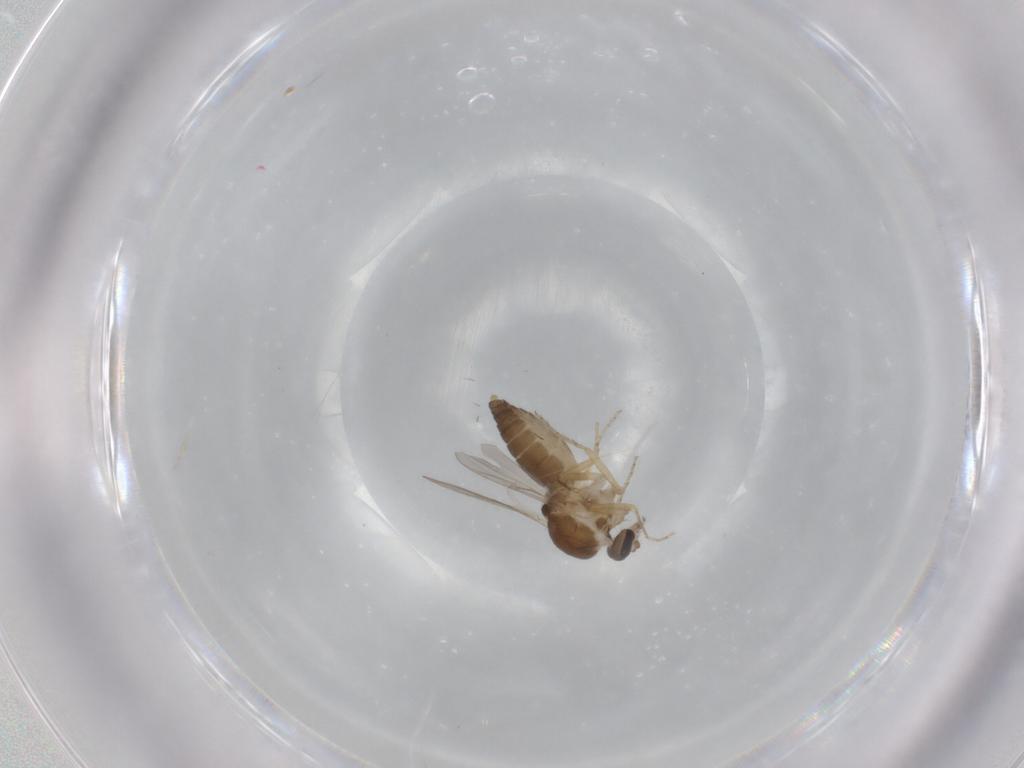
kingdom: Animalia
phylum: Arthropoda
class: Insecta
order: Diptera
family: Ceratopogonidae
